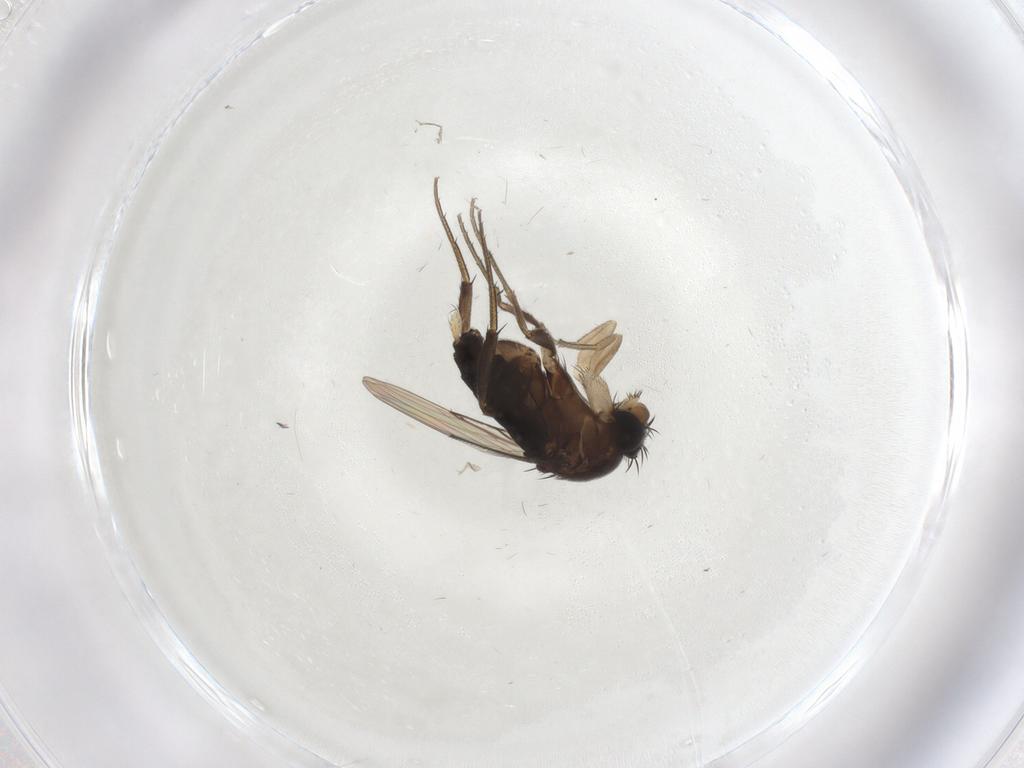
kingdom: Animalia
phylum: Arthropoda
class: Insecta
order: Diptera
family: Phoridae
